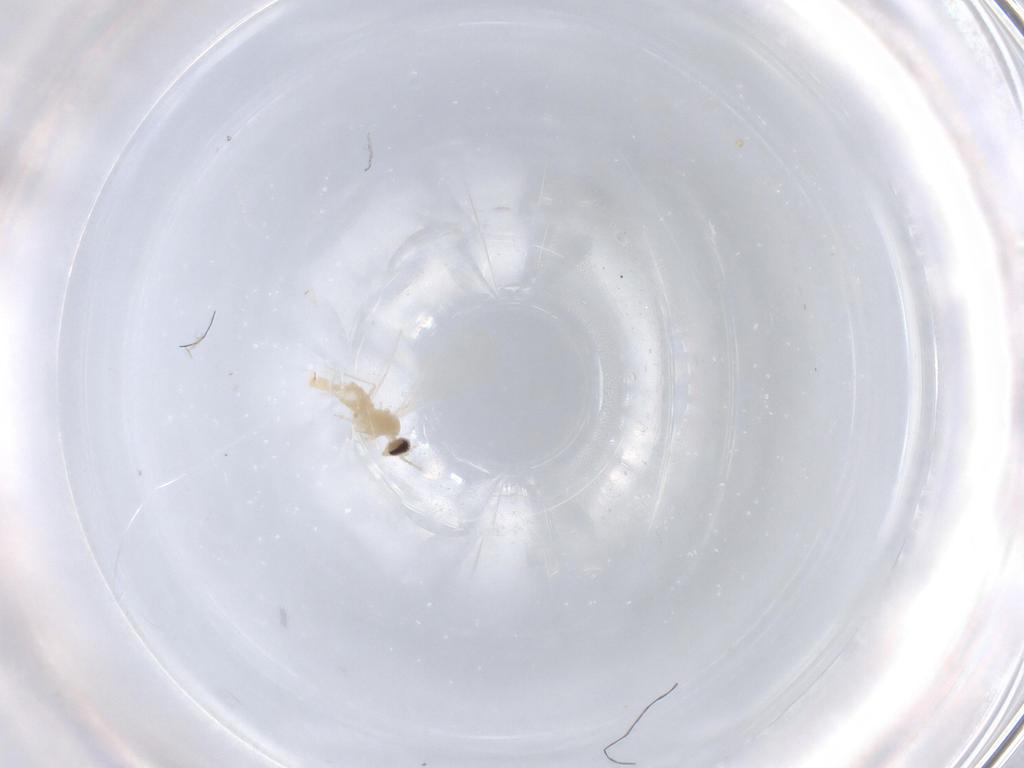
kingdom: Animalia
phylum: Arthropoda
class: Insecta
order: Diptera
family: Cecidomyiidae
